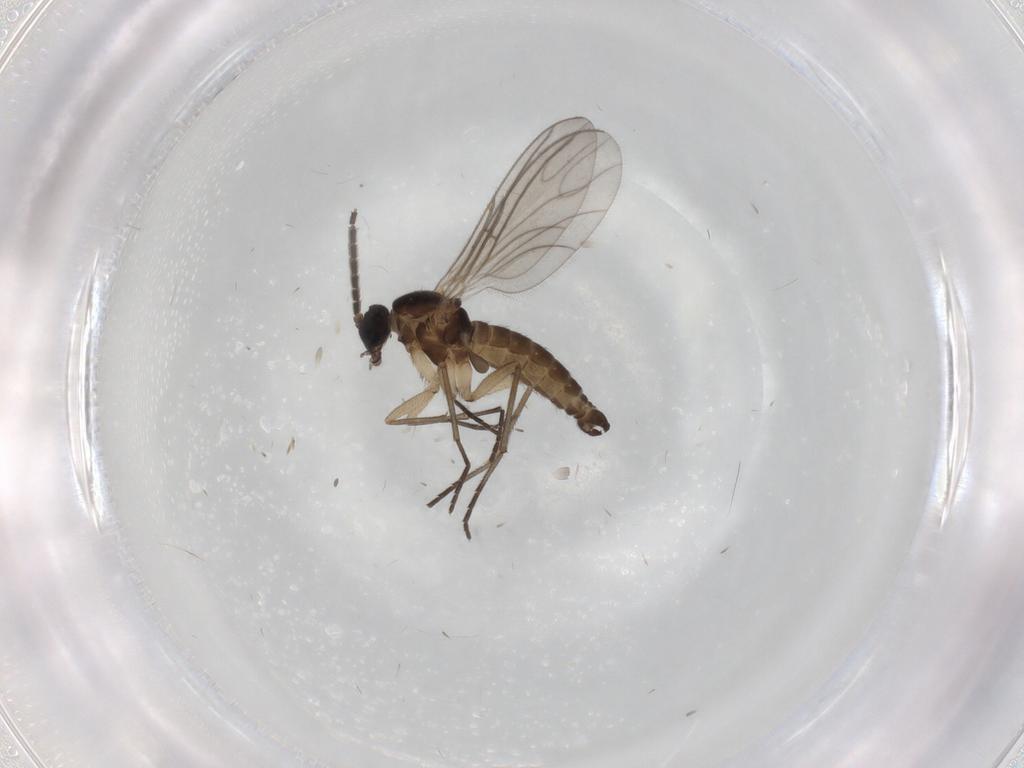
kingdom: Animalia
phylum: Arthropoda
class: Insecta
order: Diptera
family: Sciaridae
